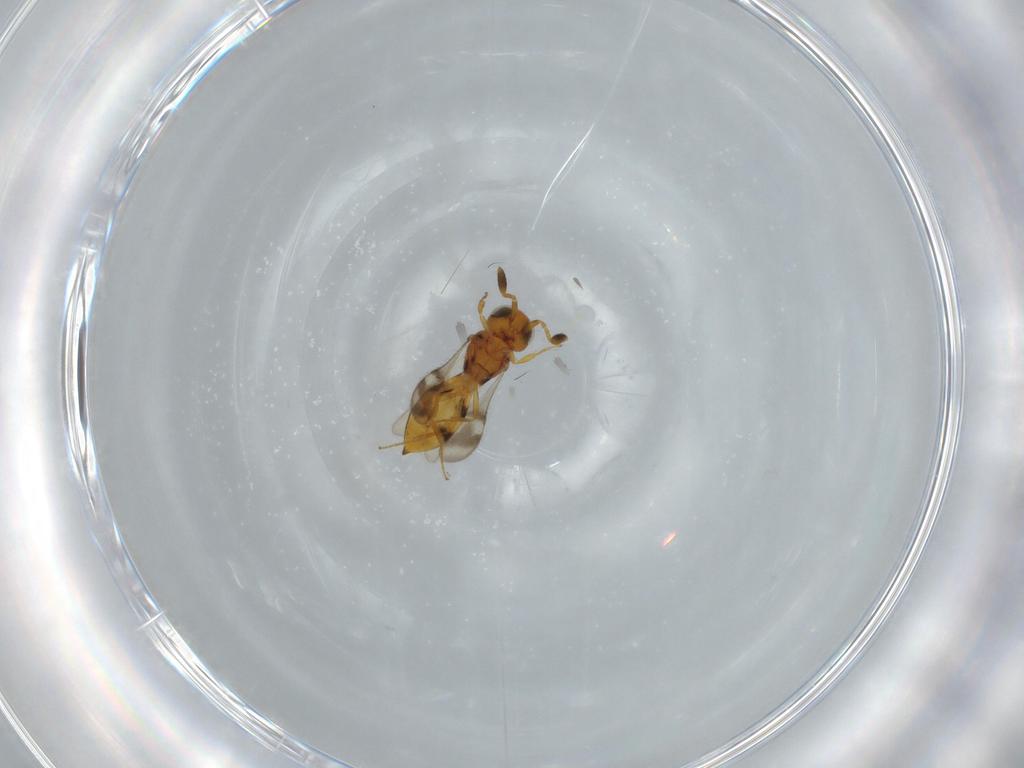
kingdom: Animalia
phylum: Arthropoda
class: Insecta
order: Hymenoptera
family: Scelionidae
